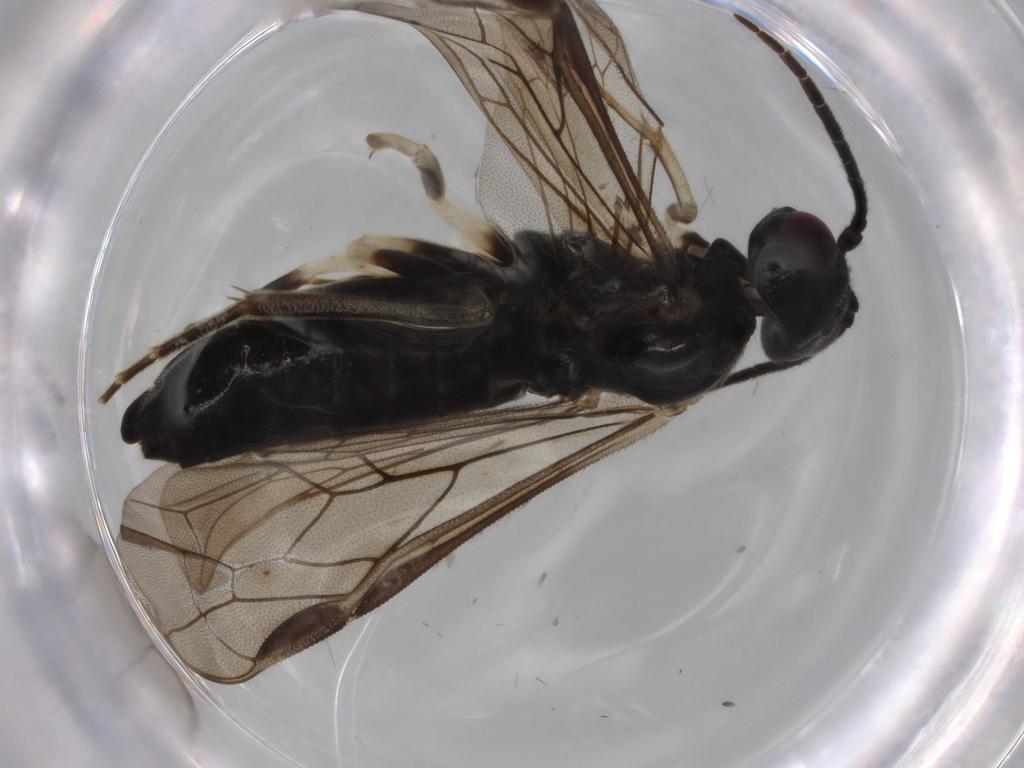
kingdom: Animalia
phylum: Arthropoda
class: Insecta
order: Hymenoptera
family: Tenthredinidae
